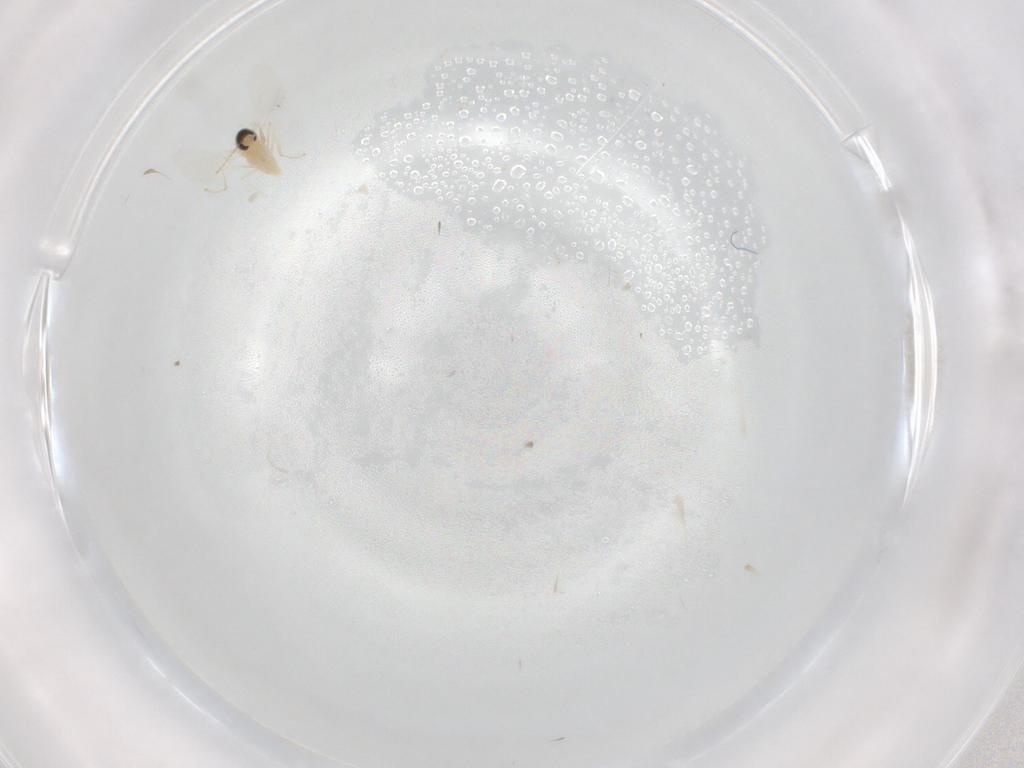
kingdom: Animalia
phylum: Arthropoda
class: Insecta
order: Diptera
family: Cecidomyiidae
